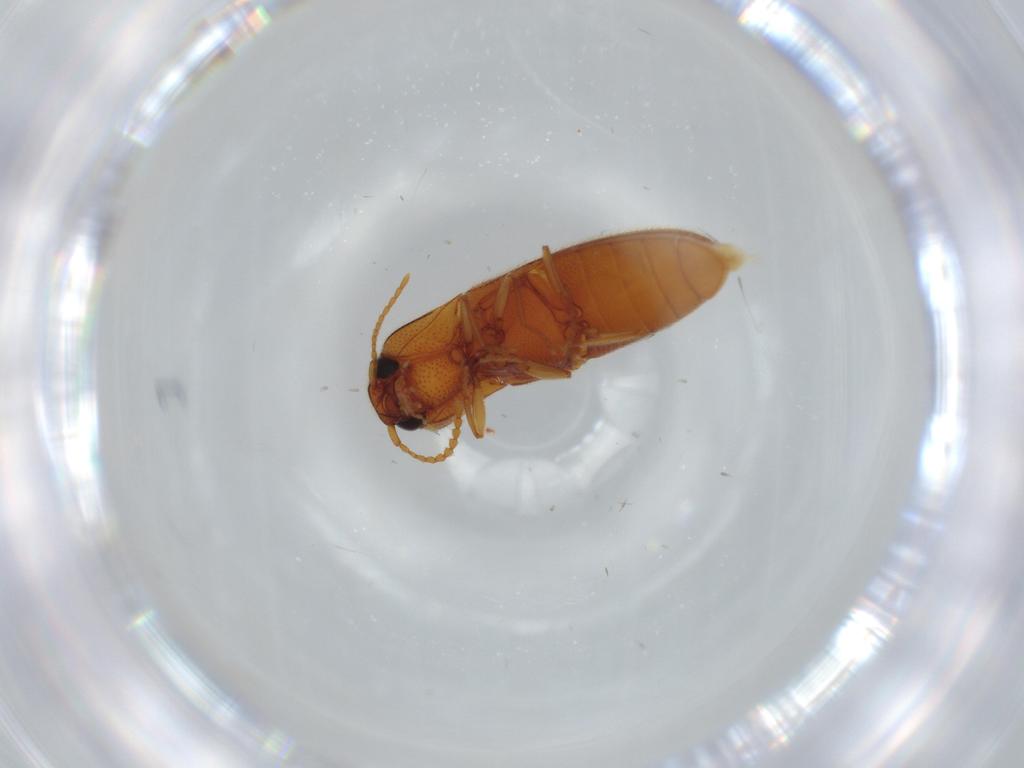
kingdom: Animalia
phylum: Arthropoda
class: Insecta
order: Coleoptera
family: Elateridae
